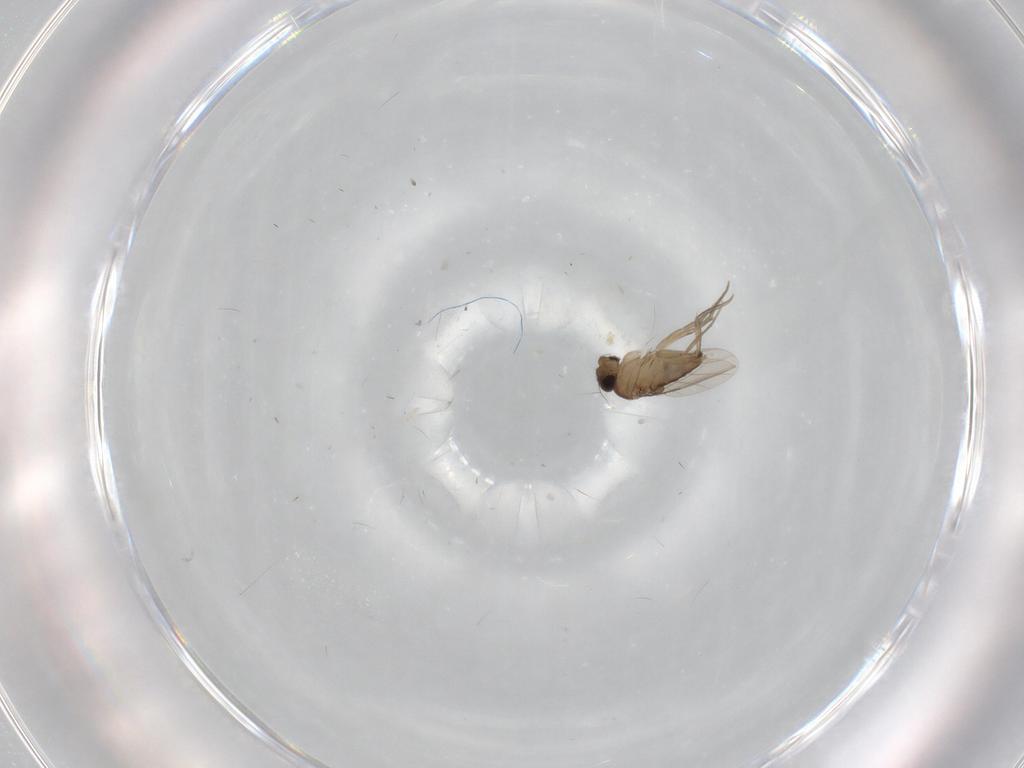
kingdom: Animalia
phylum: Arthropoda
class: Insecta
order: Diptera
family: Phoridae
